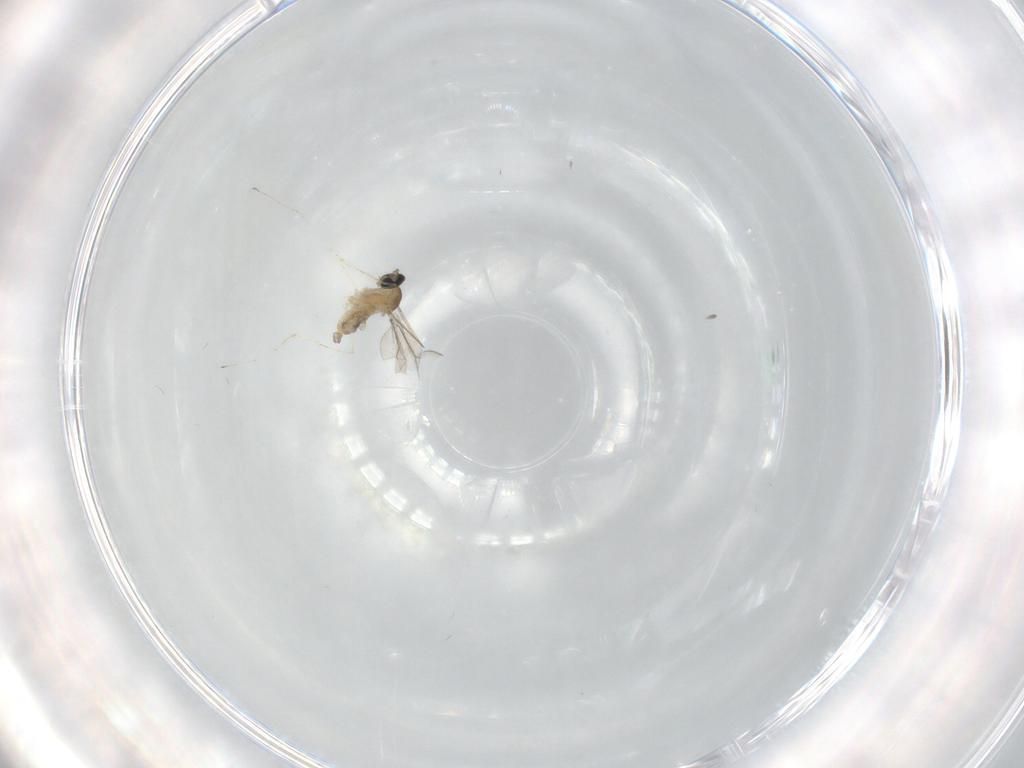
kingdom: Animalia
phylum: Arthropoda
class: Insecta
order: Diptera
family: Cecidomyiidae
